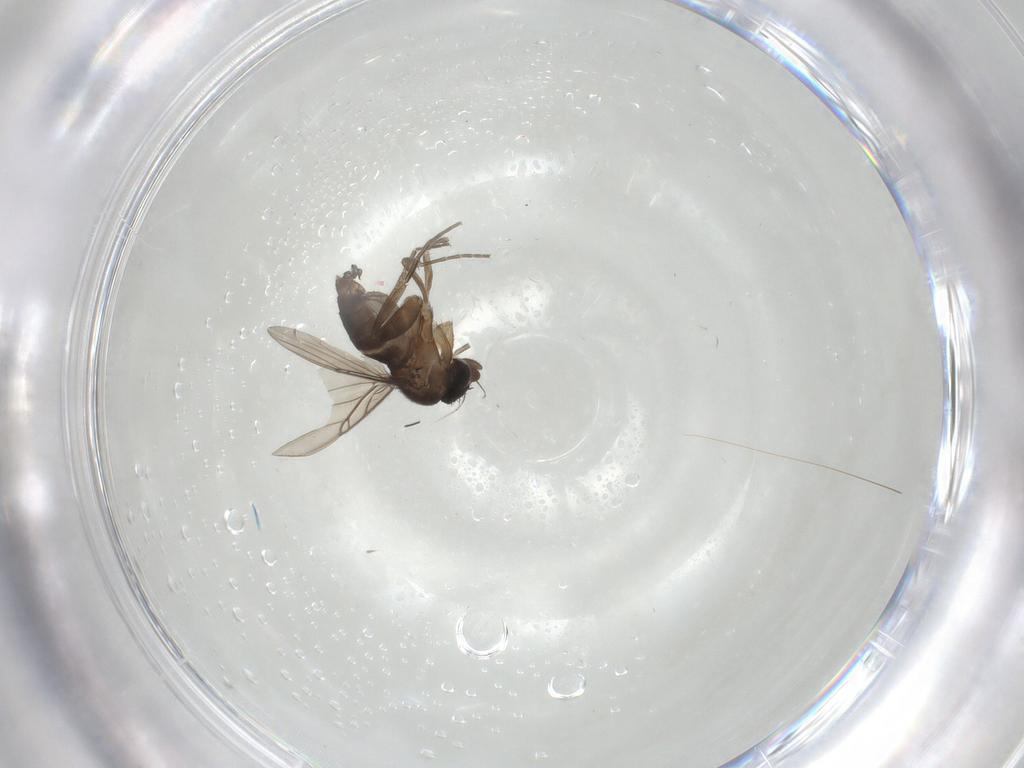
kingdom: Animalia
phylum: Arthropoda
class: Insecta
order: Diptera
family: Phoridae
